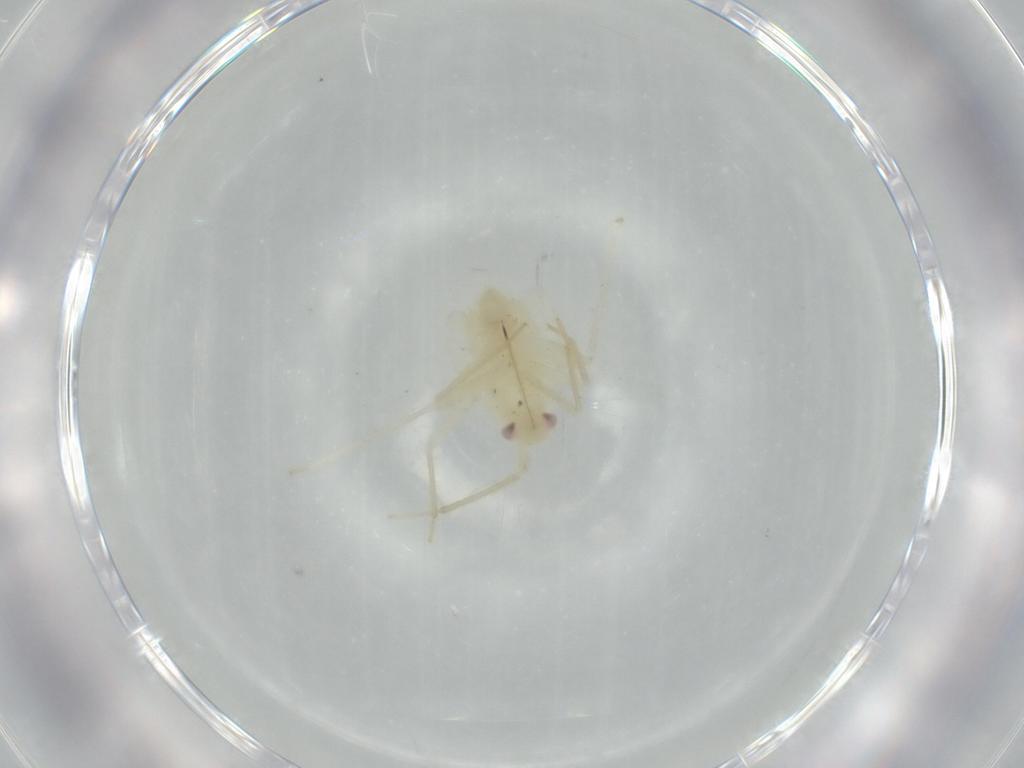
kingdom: Animalia
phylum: Arthropoda
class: Insecta
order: Hemiptera
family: Miridae
